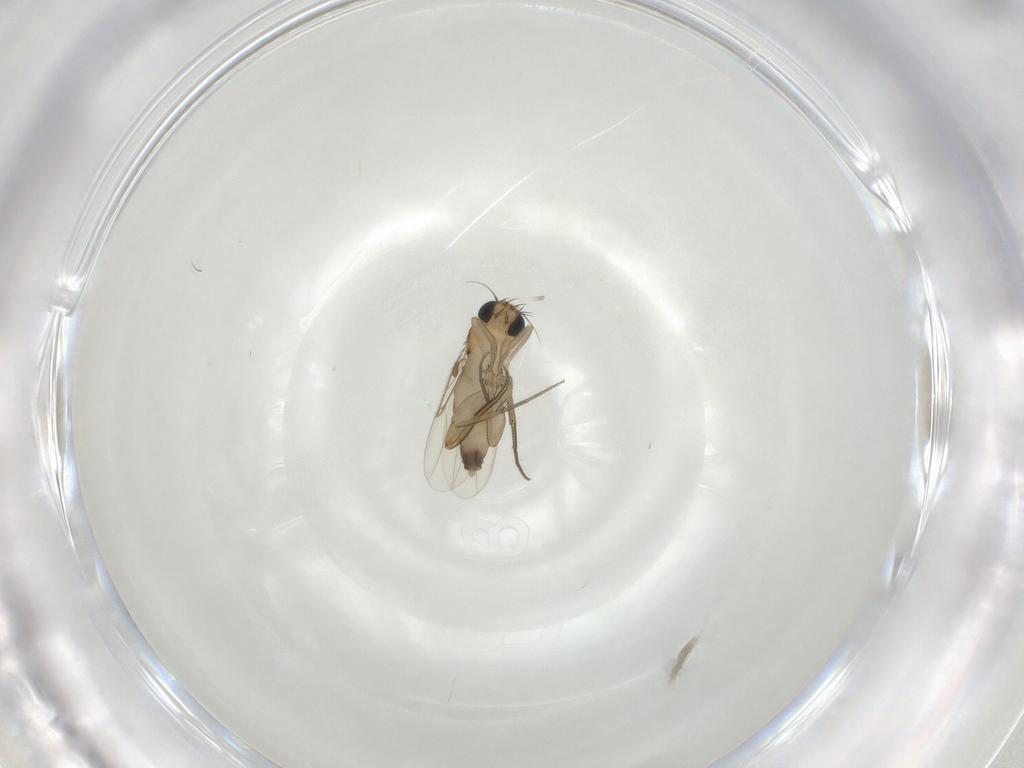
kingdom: Animalia
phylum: Arthropoda
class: Insecta
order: Diptera
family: Phoridae
